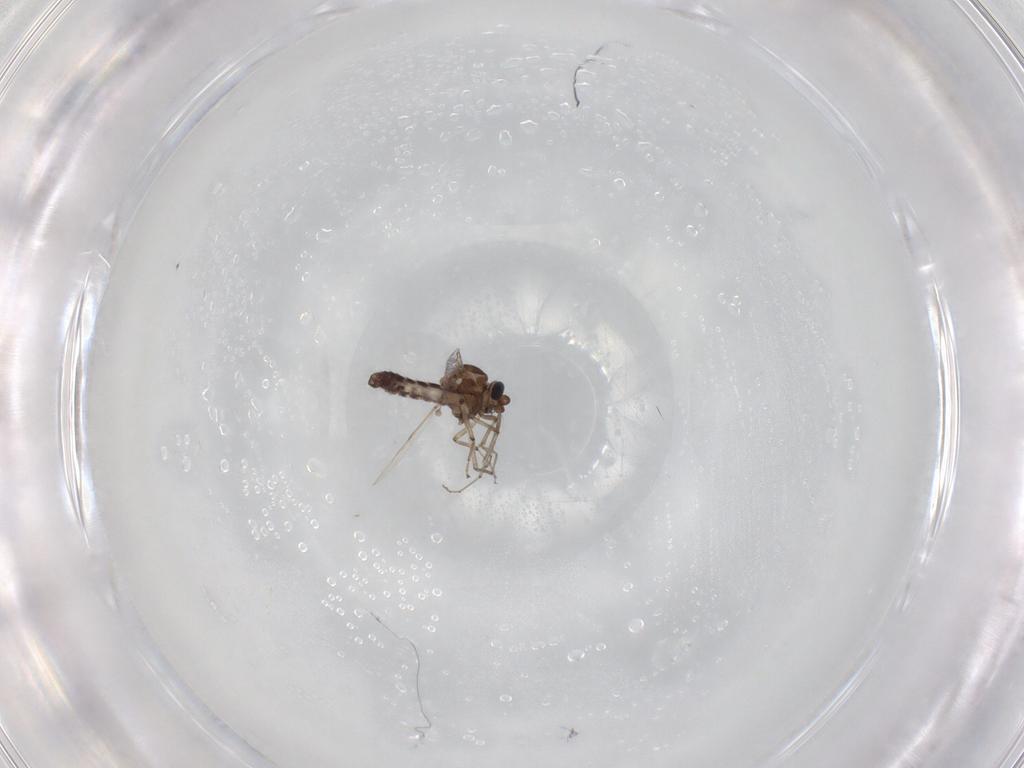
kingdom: Animalia
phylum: Arthropoda
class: Insecta
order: Diptera
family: Ceratopogonidae
